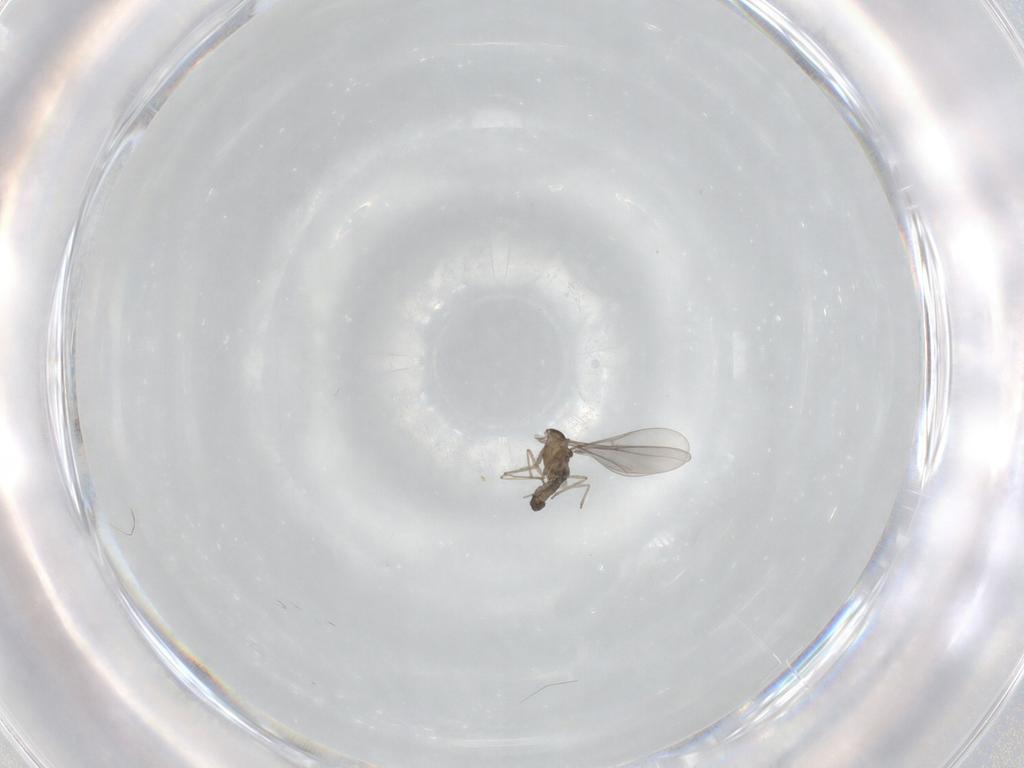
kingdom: Animalia
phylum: Arthropoda
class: Insecta
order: Diptera
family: Cecidomyiidae
